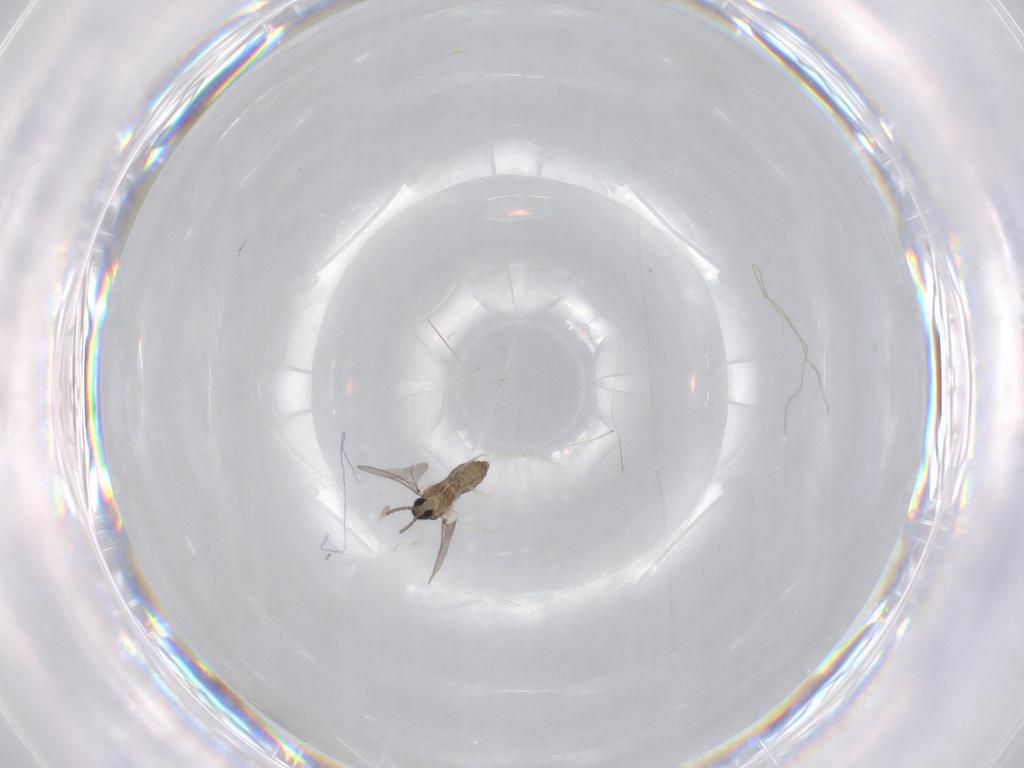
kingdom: Animalia
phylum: Arthropoda
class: Insecta
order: Diptera
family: Cecidomyiidae
